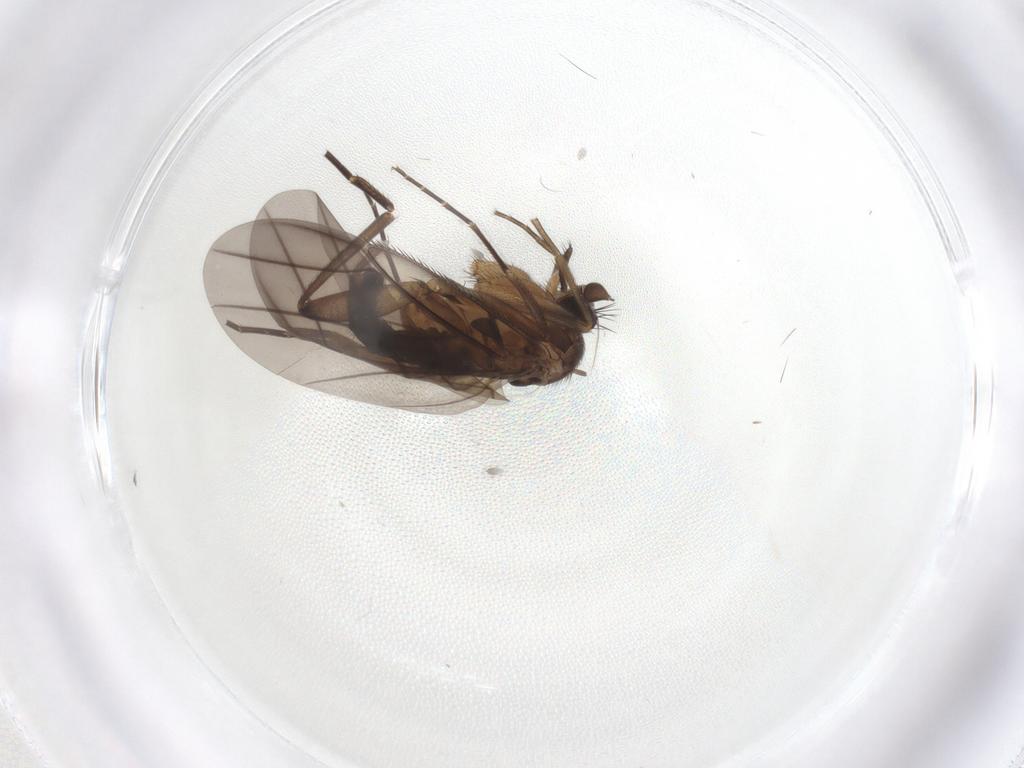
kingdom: Animalia
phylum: Arthropoda
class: Insecta
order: Diptera
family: Phoridae
